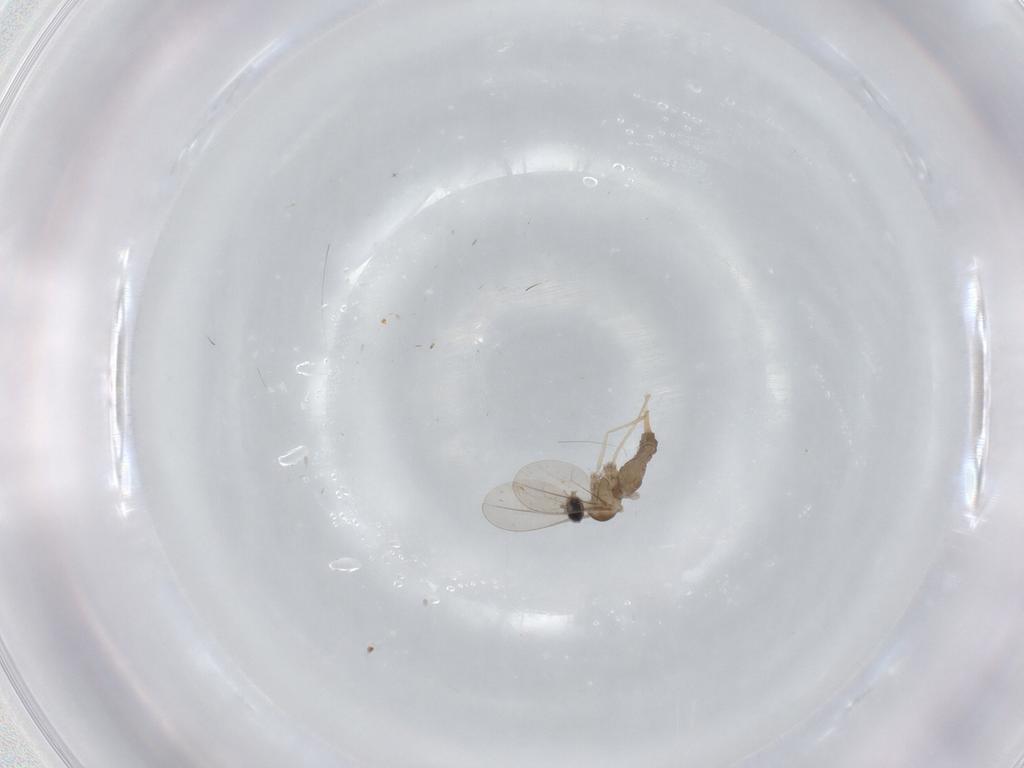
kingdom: Animalia
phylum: Arthropoda
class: Insecta
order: Diptera
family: Cecidomyiidae
